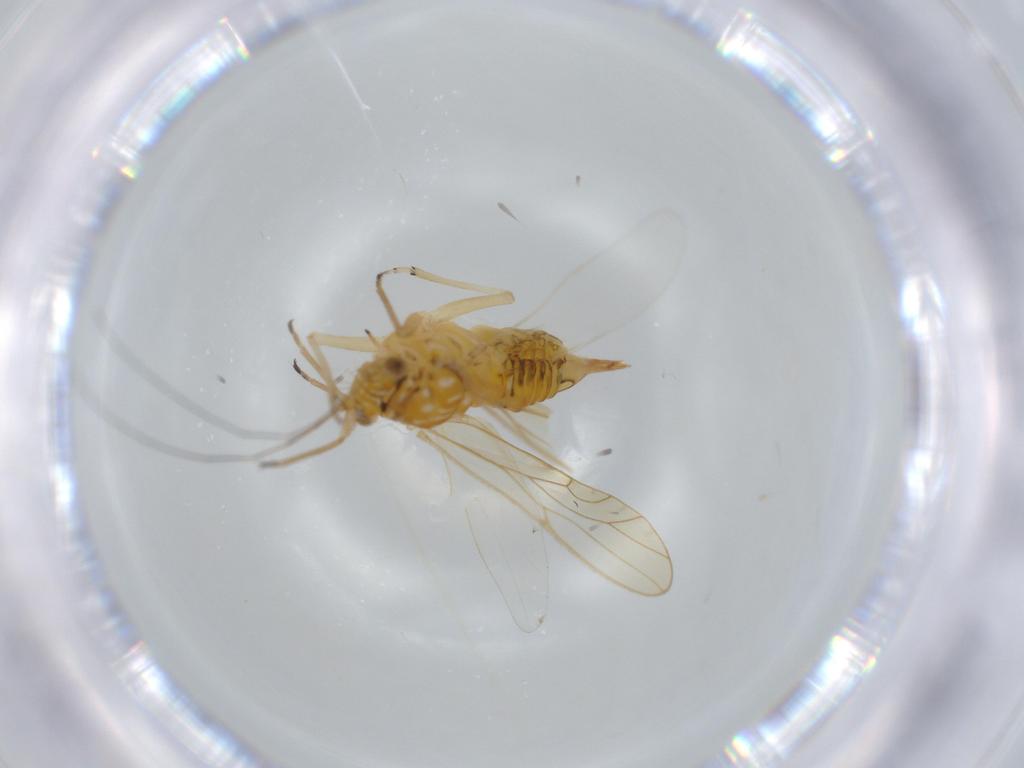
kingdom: Animalia
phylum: Arthropoda
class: Insecta
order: Hemiptera
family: Psyllidae
